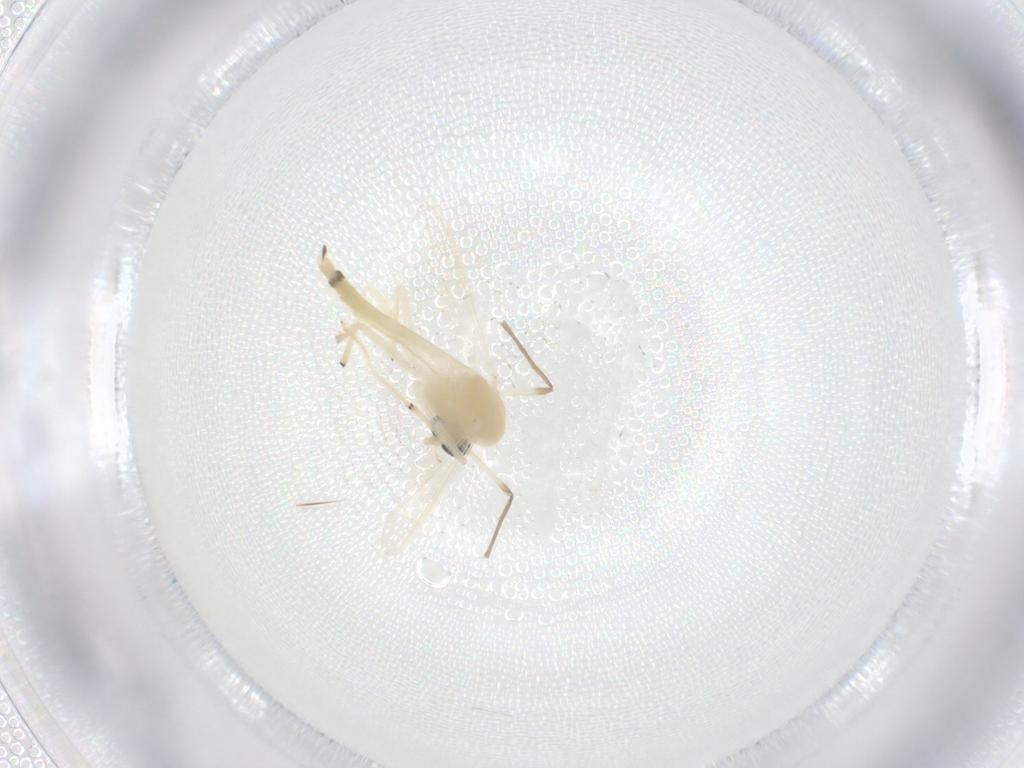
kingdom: Animalia
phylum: Arthropoda
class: Insecta
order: Diptera
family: Chironomidae
